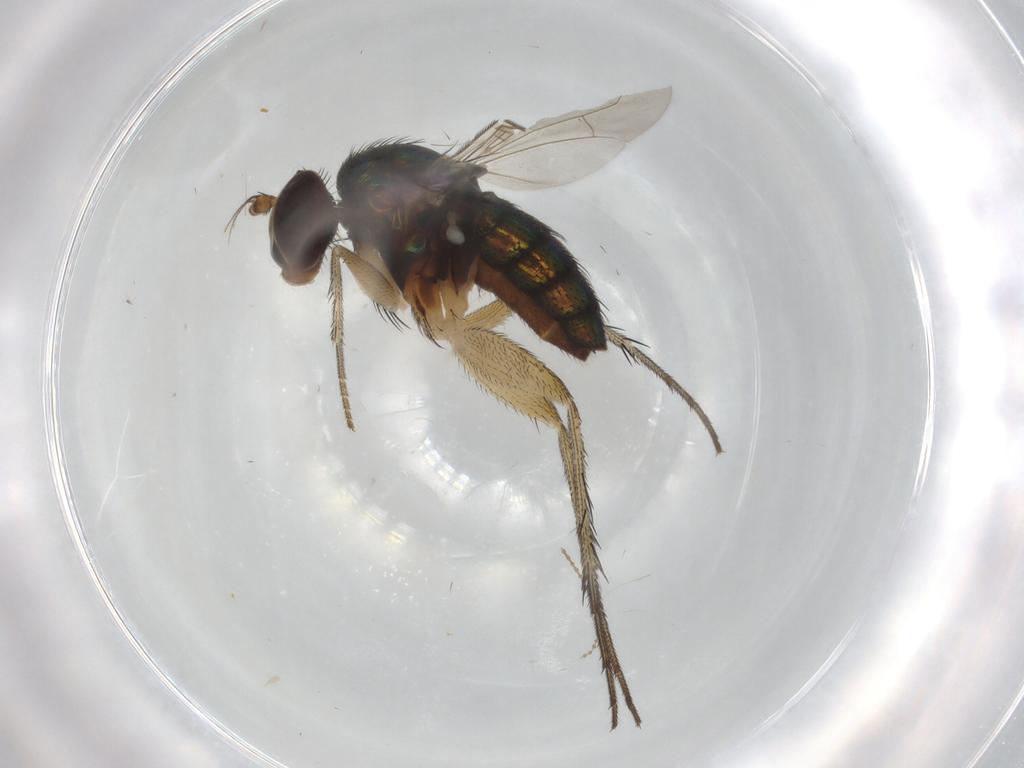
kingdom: Animalia
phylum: Arthropoda
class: Insecta
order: Diptera
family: Dolichopodidae
